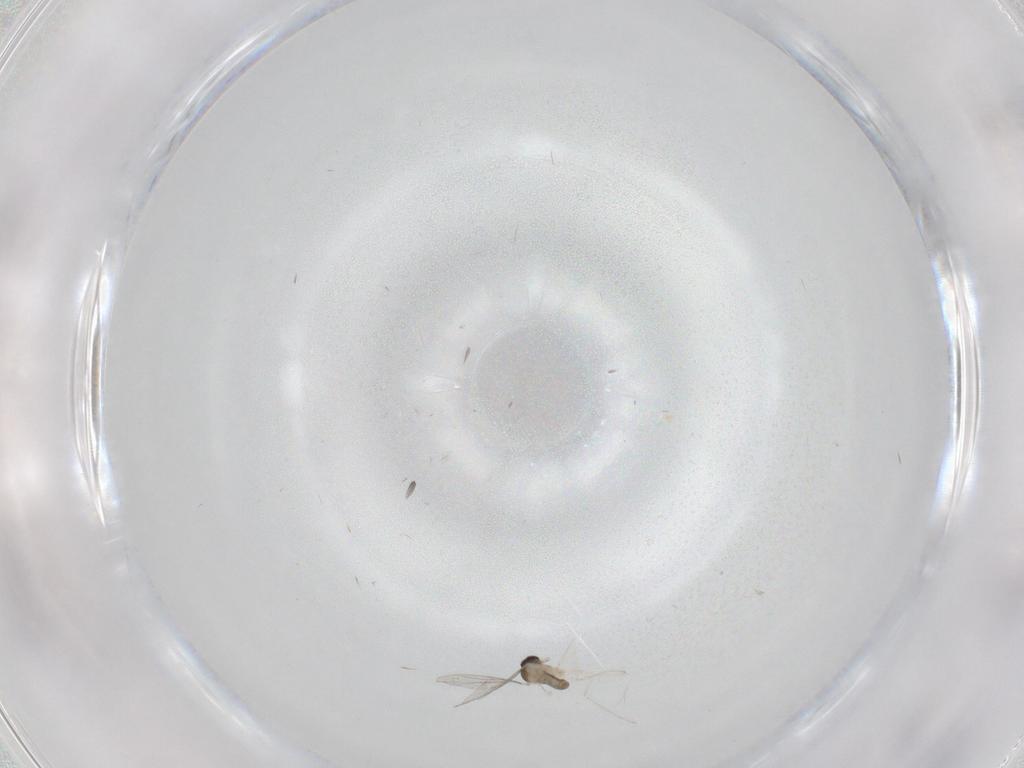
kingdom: Animalia
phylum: Arthropoda
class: Insecta
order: Diptera
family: Cecidomyiidae
